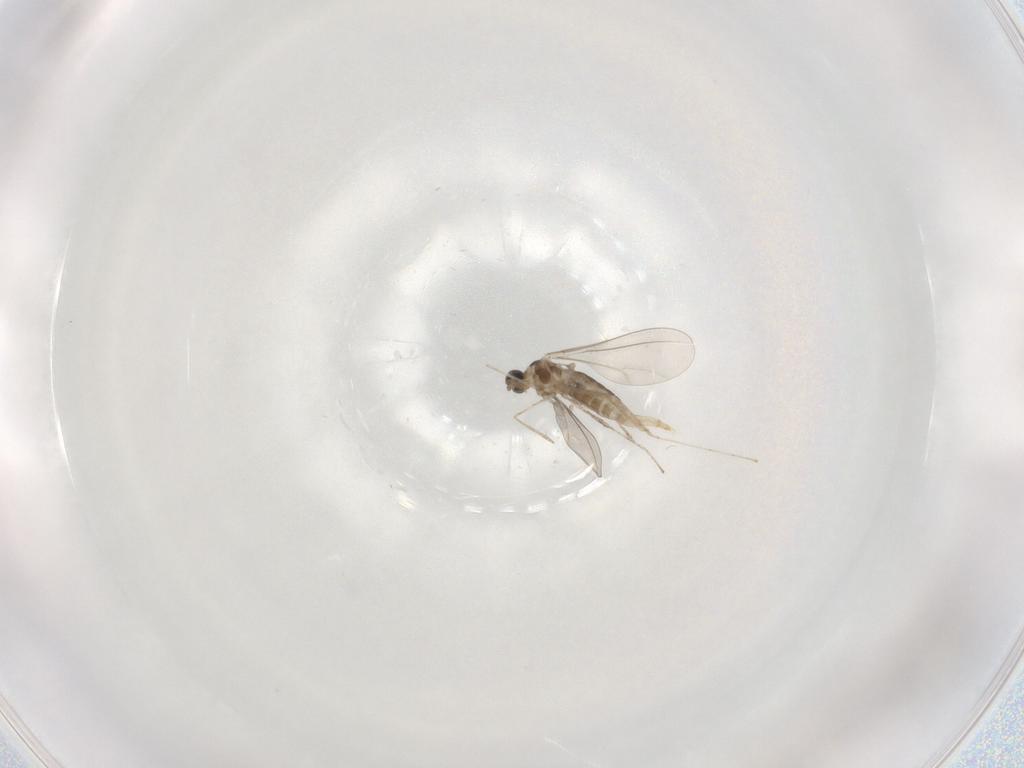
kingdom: Animalia
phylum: Arthropoda
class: Insecta
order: Diptera
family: Cecidomyiidae
